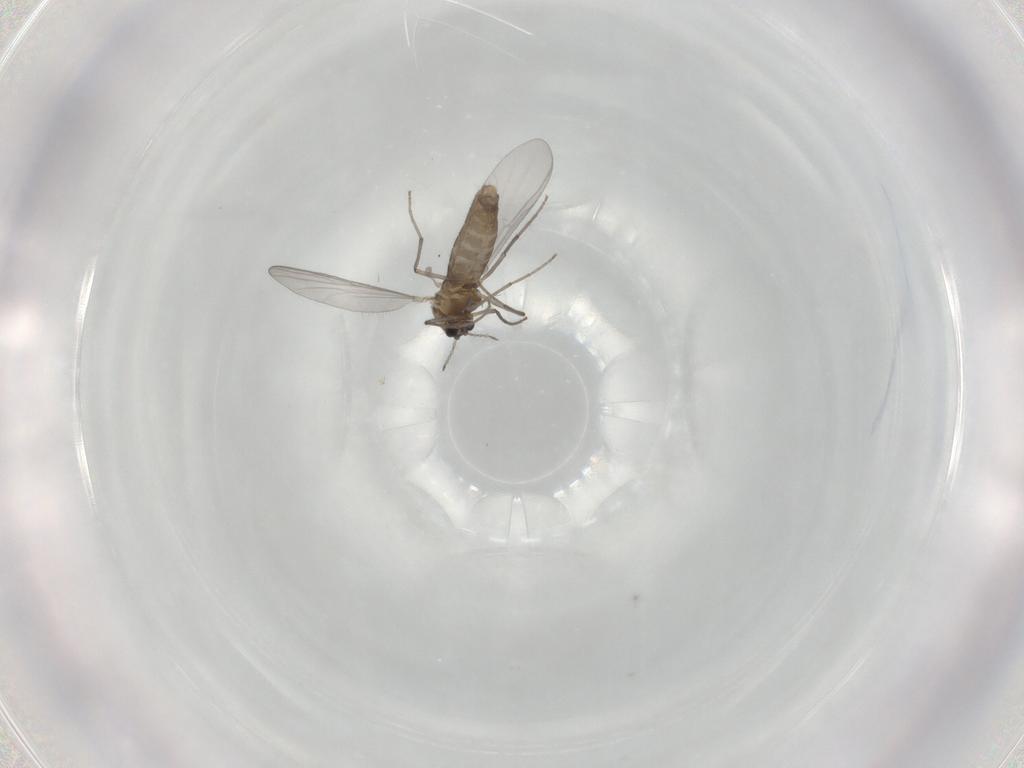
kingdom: Animalia
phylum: Arthropoda
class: Insecta
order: Diptera
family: Chironomidae
